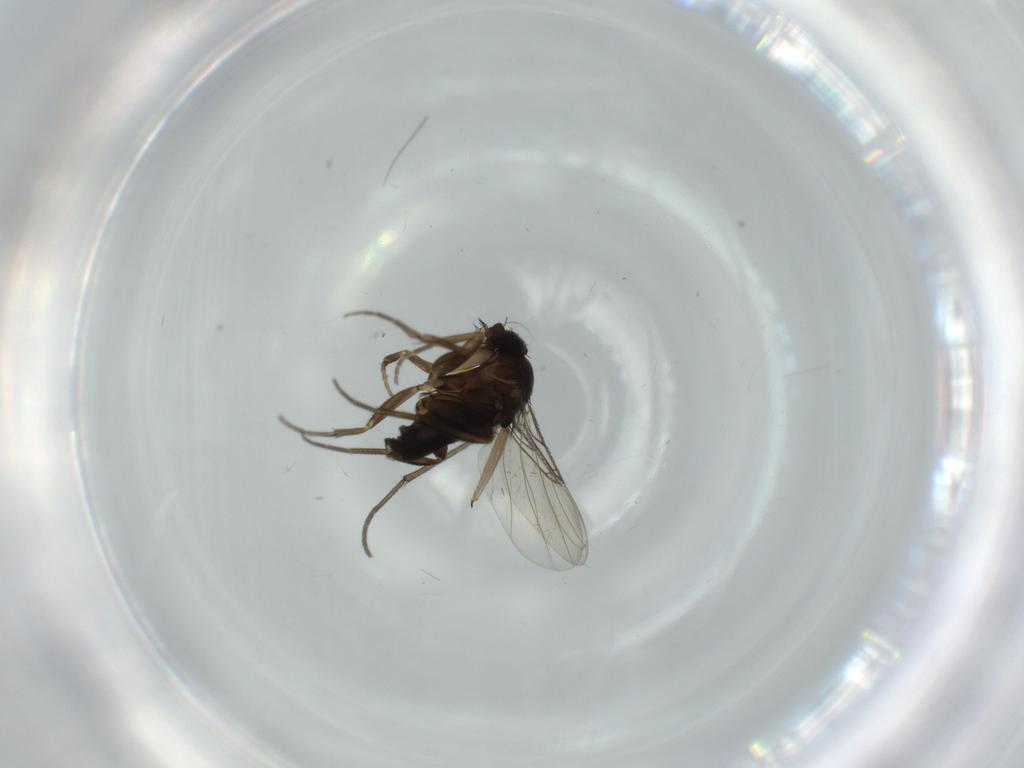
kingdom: Animalia
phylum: Arthropoda
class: Insecta
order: Diptera
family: Phoridae
